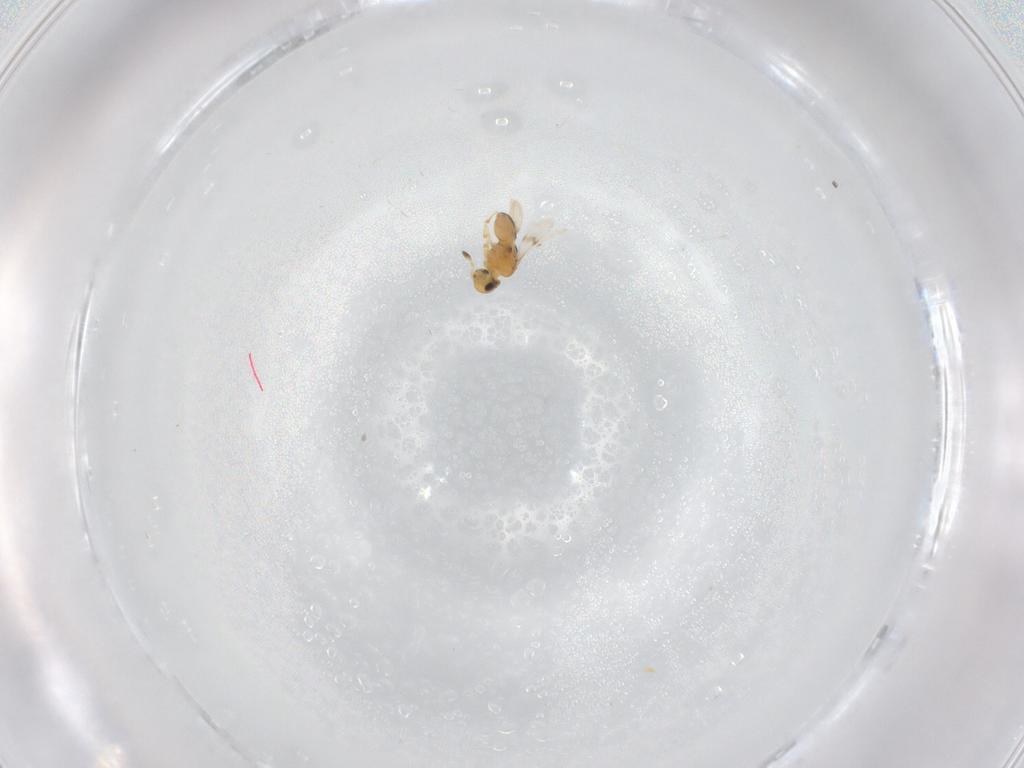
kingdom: Animalia
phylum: Arthropoda
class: Insecta
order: Hymenoptera
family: Scelionidae
